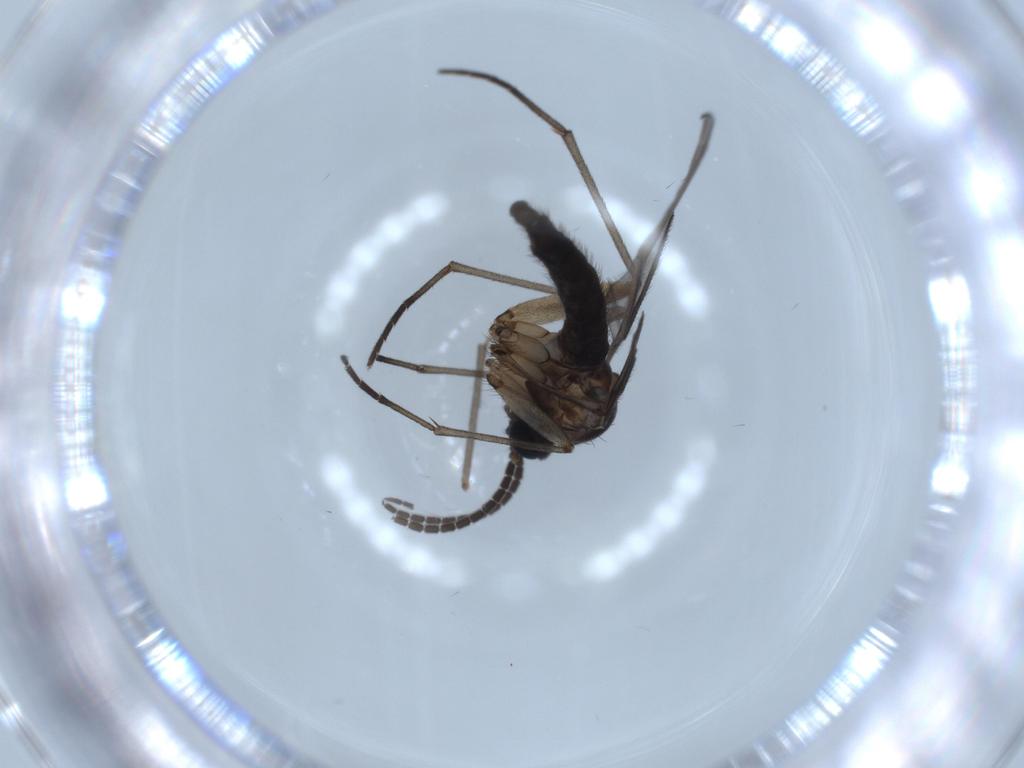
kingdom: Animalia
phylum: Arthropoda
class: Insecta
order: Diptera
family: Sciaridae
